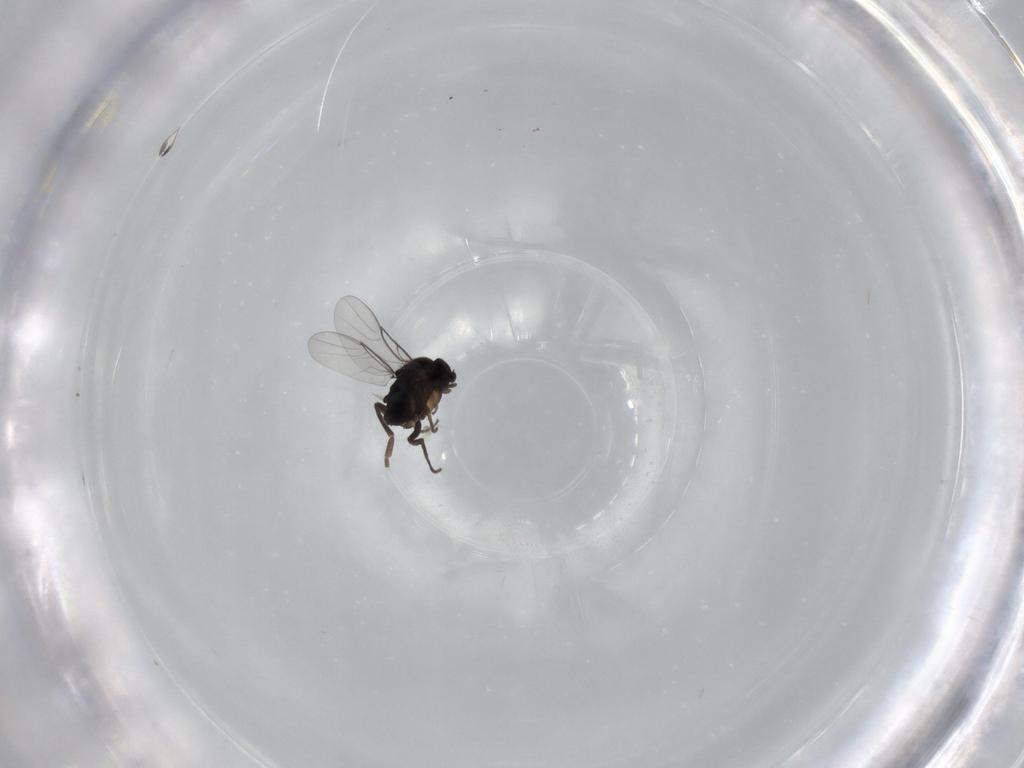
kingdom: Animalia
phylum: Arthropoda
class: Insecta
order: Diptera
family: Phoridae
